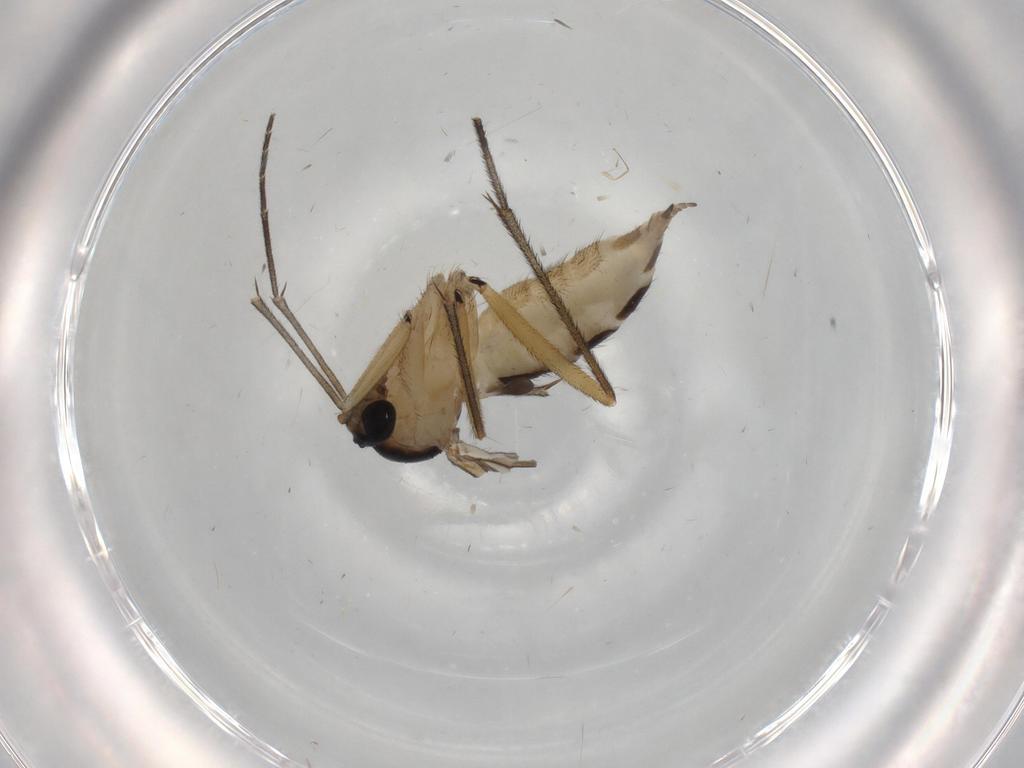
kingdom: Animalia
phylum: Arthropoda
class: Insecta
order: Diptera
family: Sciaridae
